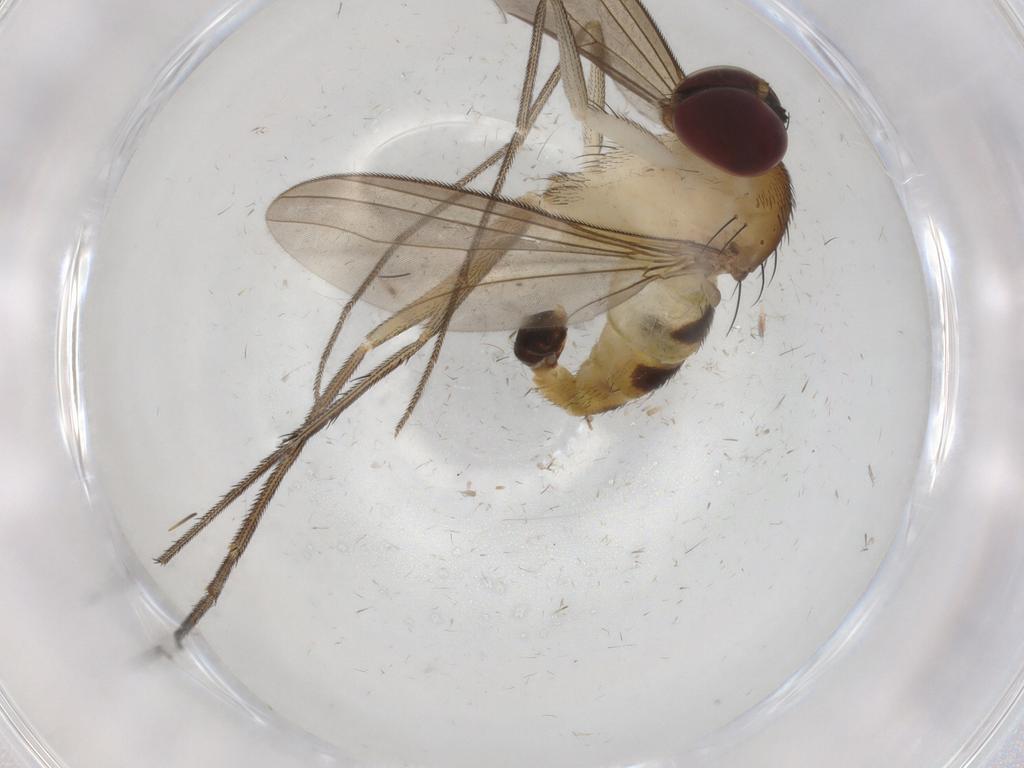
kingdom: Animalia
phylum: Arthropoda
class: Insecta
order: Diptera
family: Dolichopodidae
